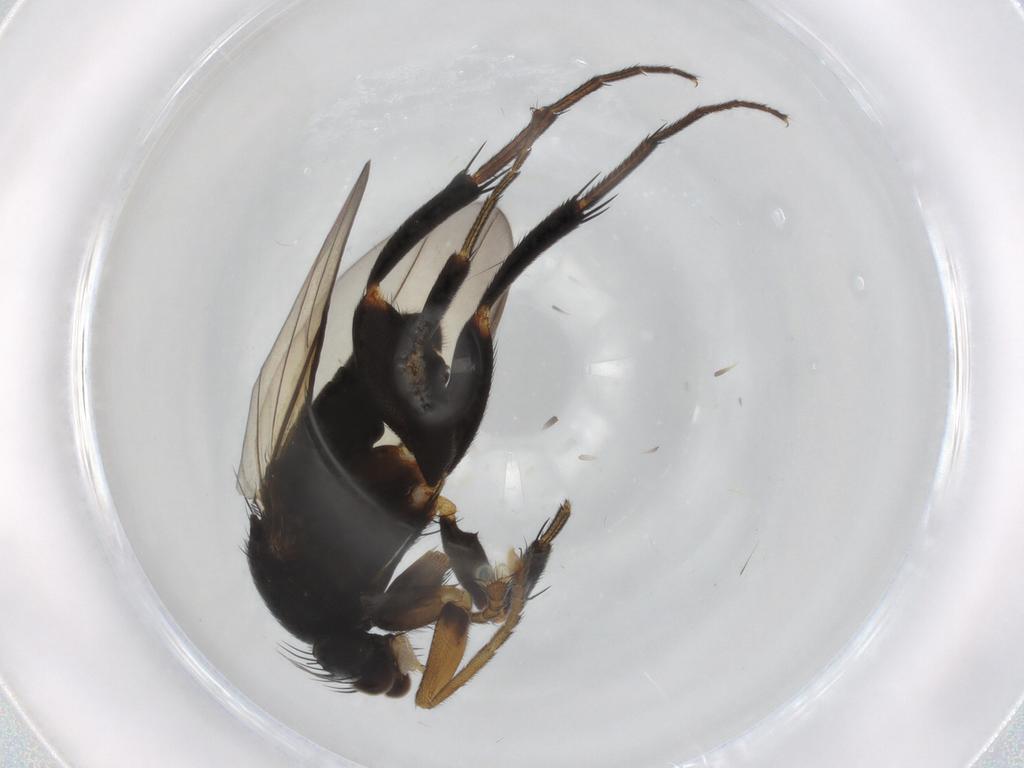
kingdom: Animalia
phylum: Arthropoda
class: Insecta
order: Diptera
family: Phoridae
